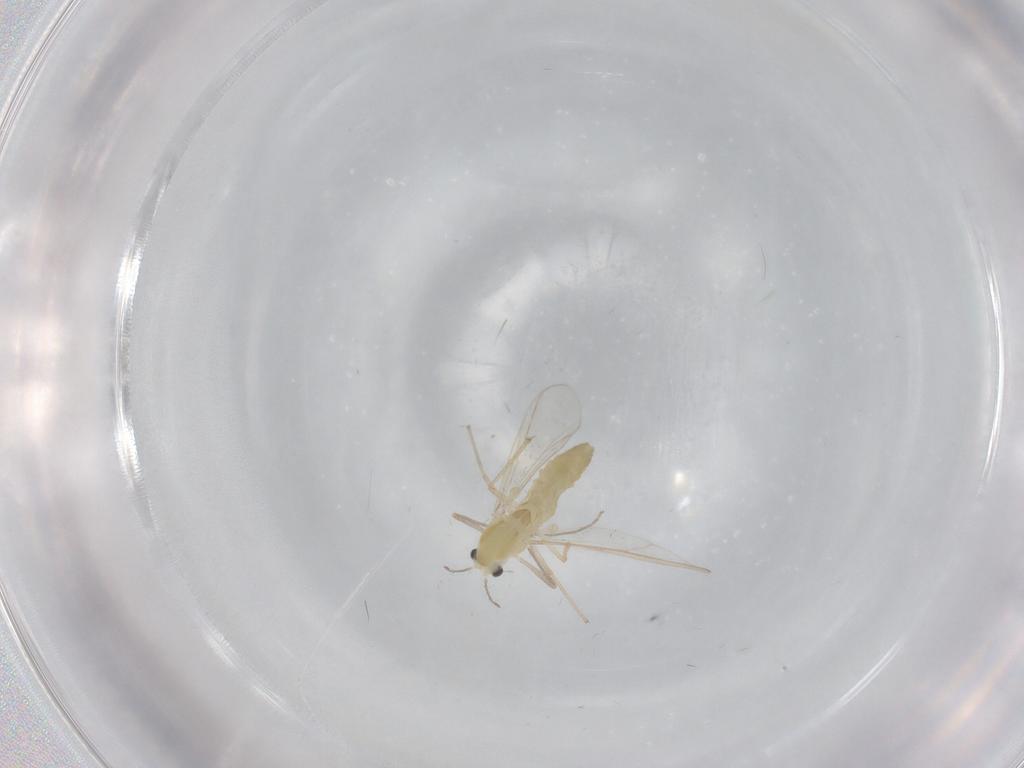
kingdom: Animalia
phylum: Arthropoda
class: Insecta
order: Diptera
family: Chironomidae
